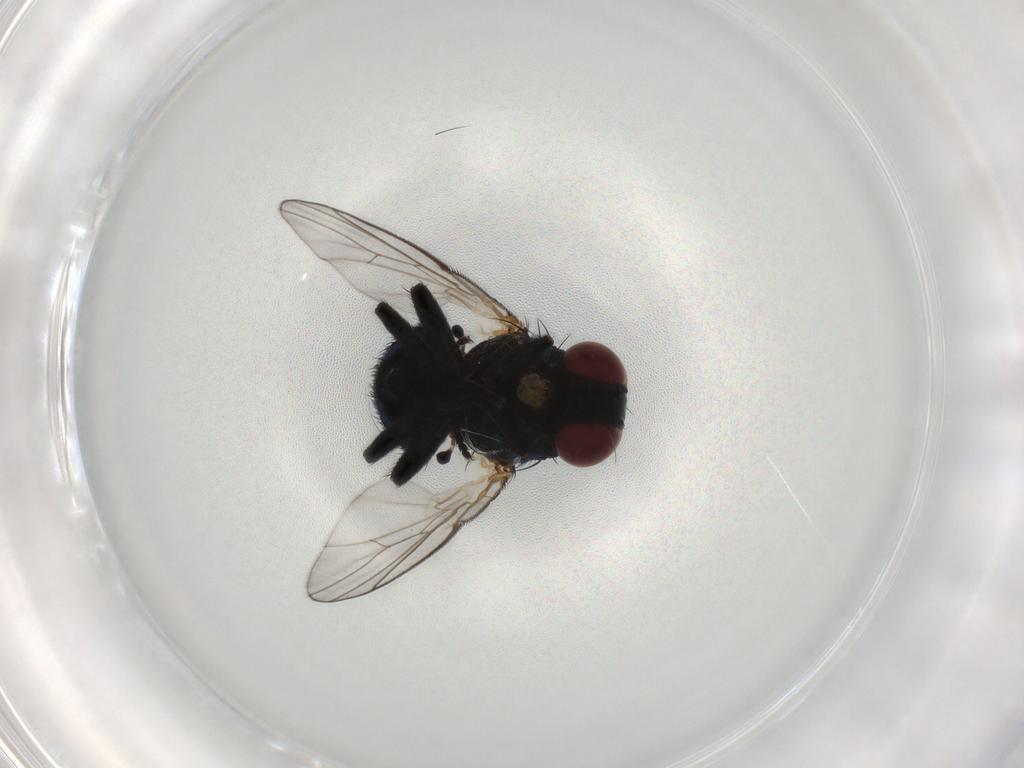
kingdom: Animalia
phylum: Arthropoda
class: Insecta
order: Diptera
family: Agromyzidae
